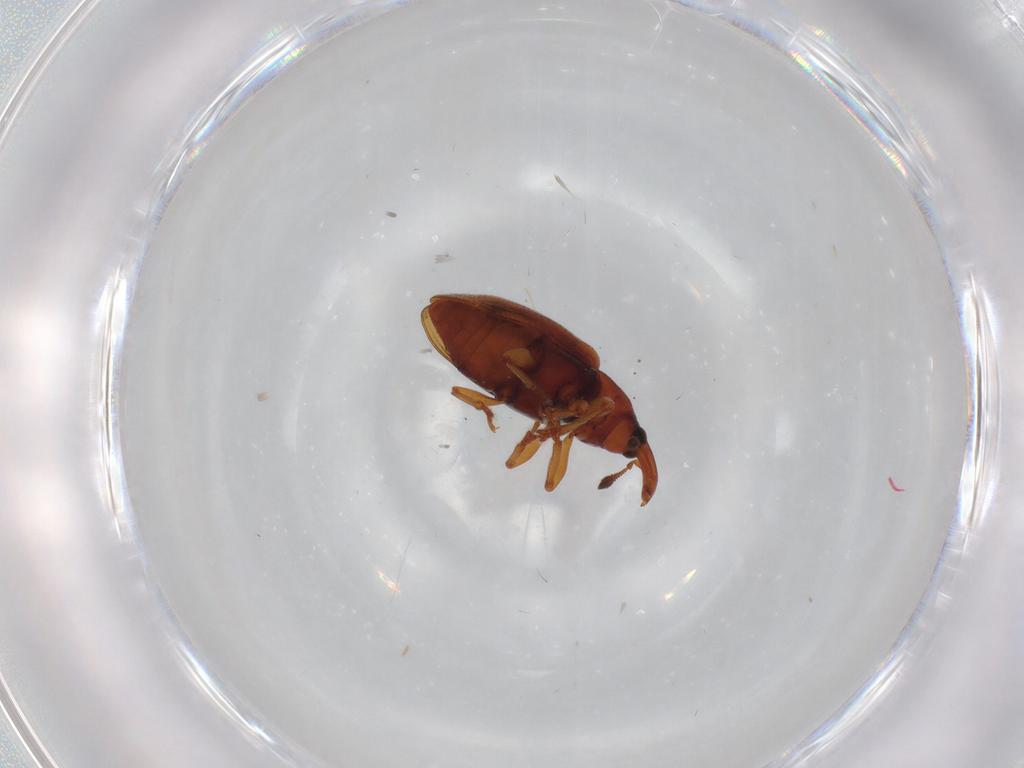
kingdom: Animalia
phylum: Arthropoda
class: Insecta
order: Coleoptera
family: Curculionidae
